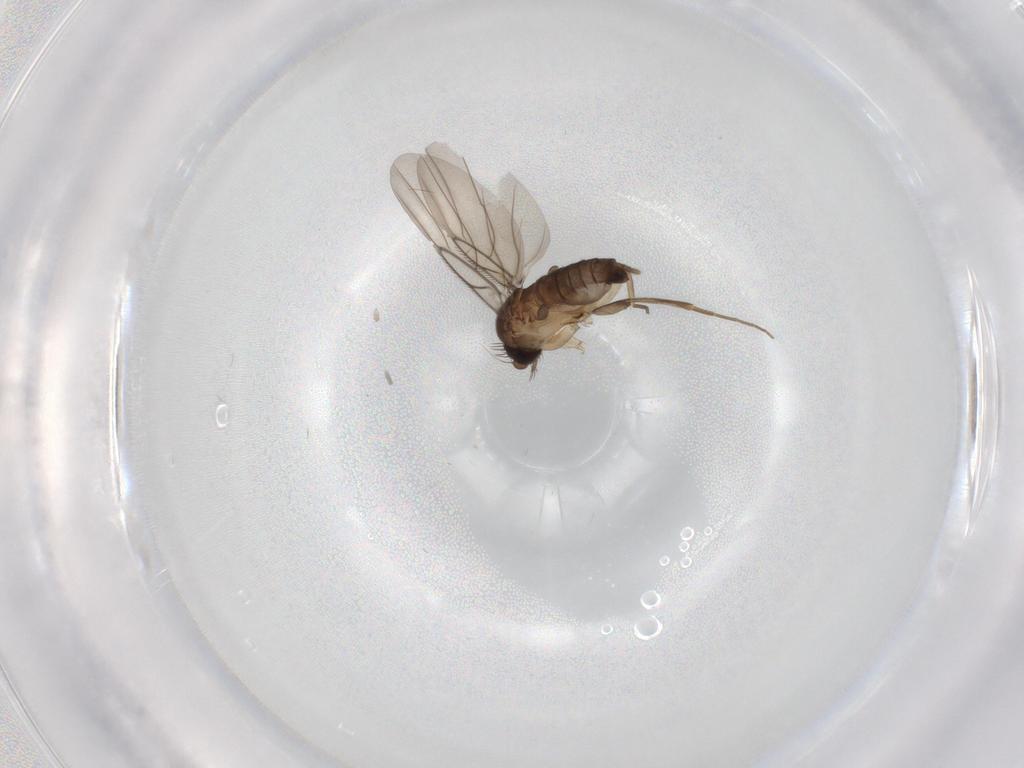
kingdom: Animalia
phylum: Arthropoda
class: Insecta
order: Diptera
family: Phoridae
